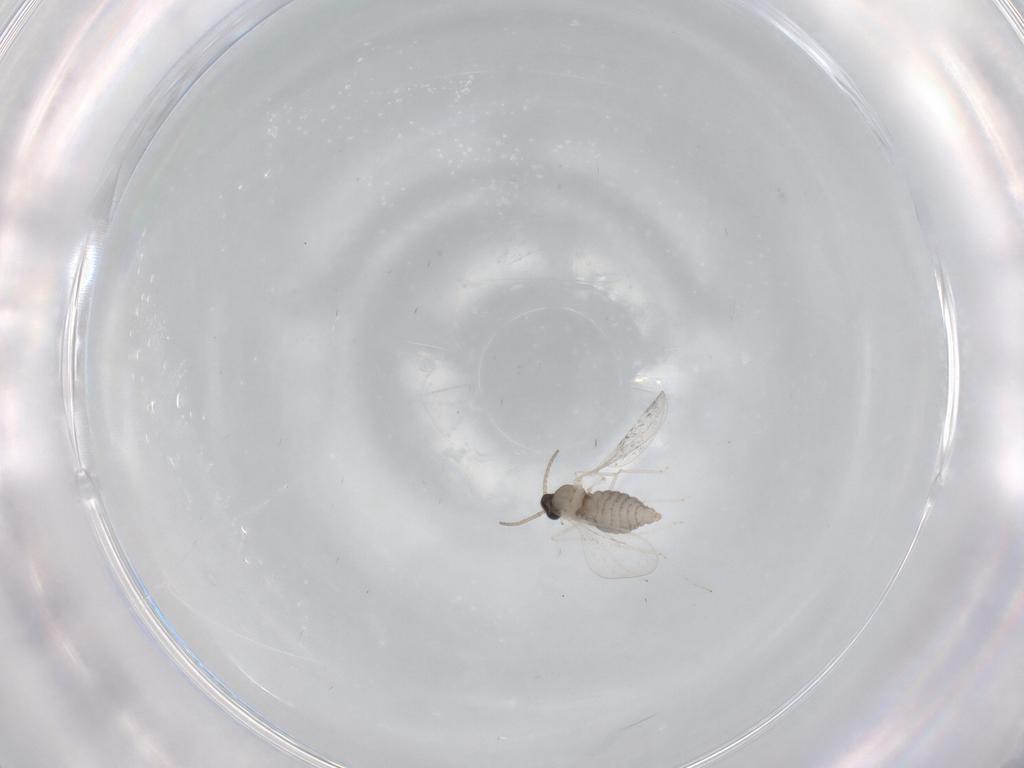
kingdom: Animalia
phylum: Arthropoda
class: Insecta
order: Diptera
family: Cecidomyiidae
